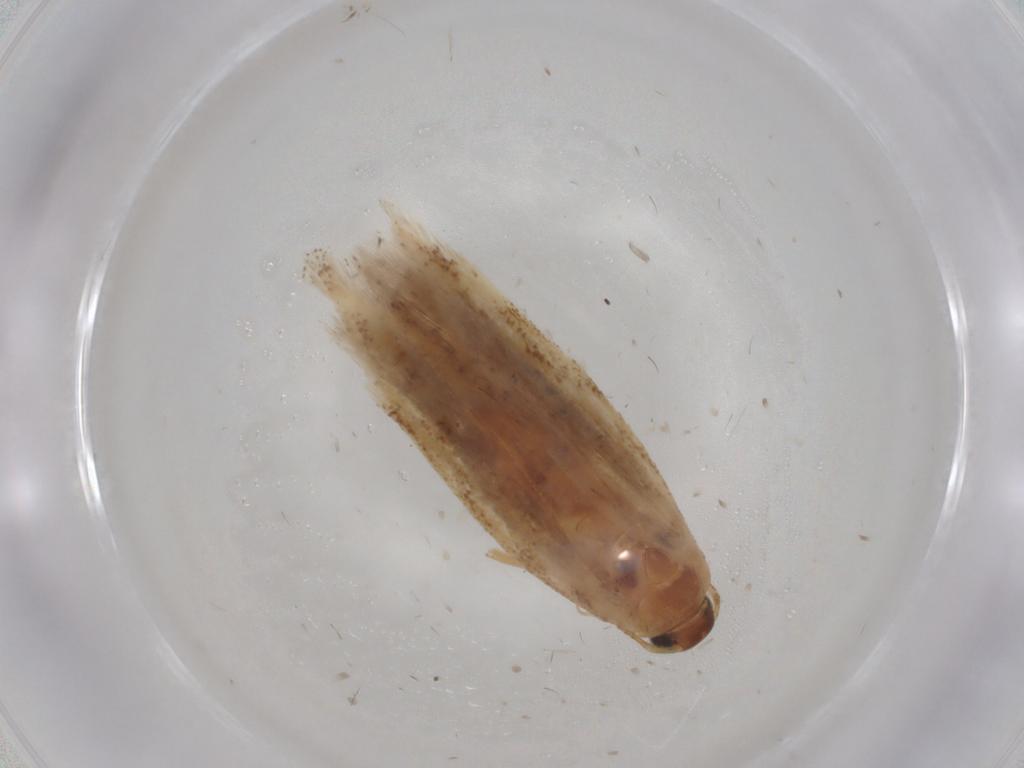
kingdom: Animalia
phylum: Arthropoda
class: Insecta
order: Lepidoptera
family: Gelechiidae
